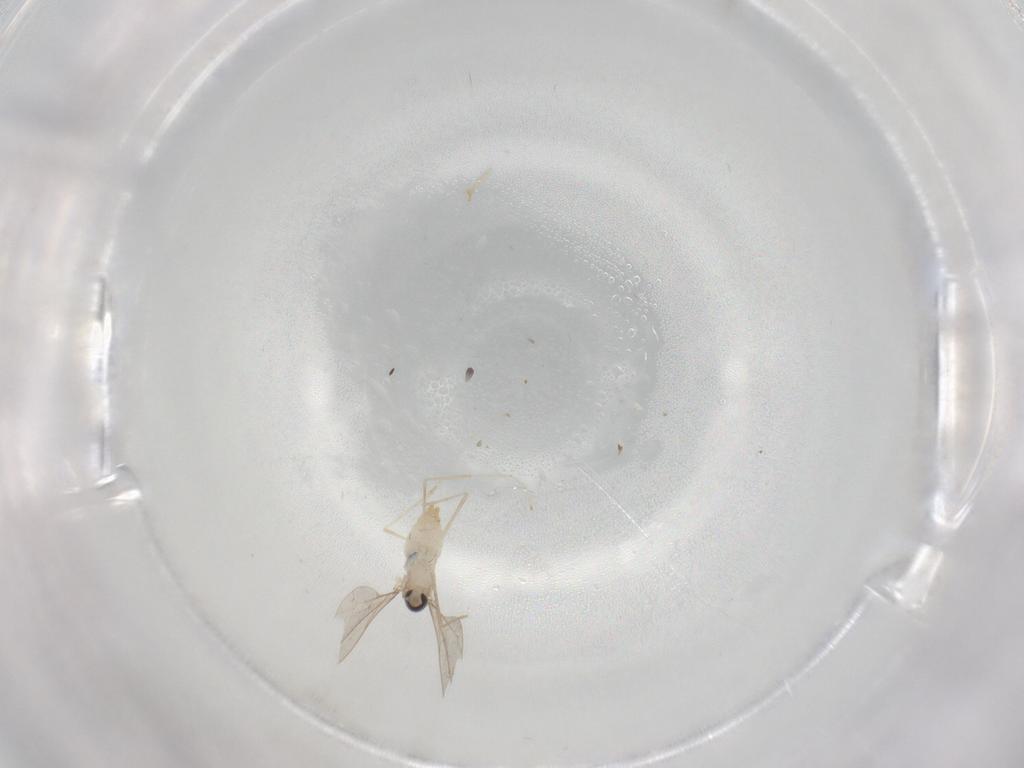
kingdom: Animalia
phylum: Arthropoda
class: Insecta
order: Diptera
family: Cecidomyiidae
